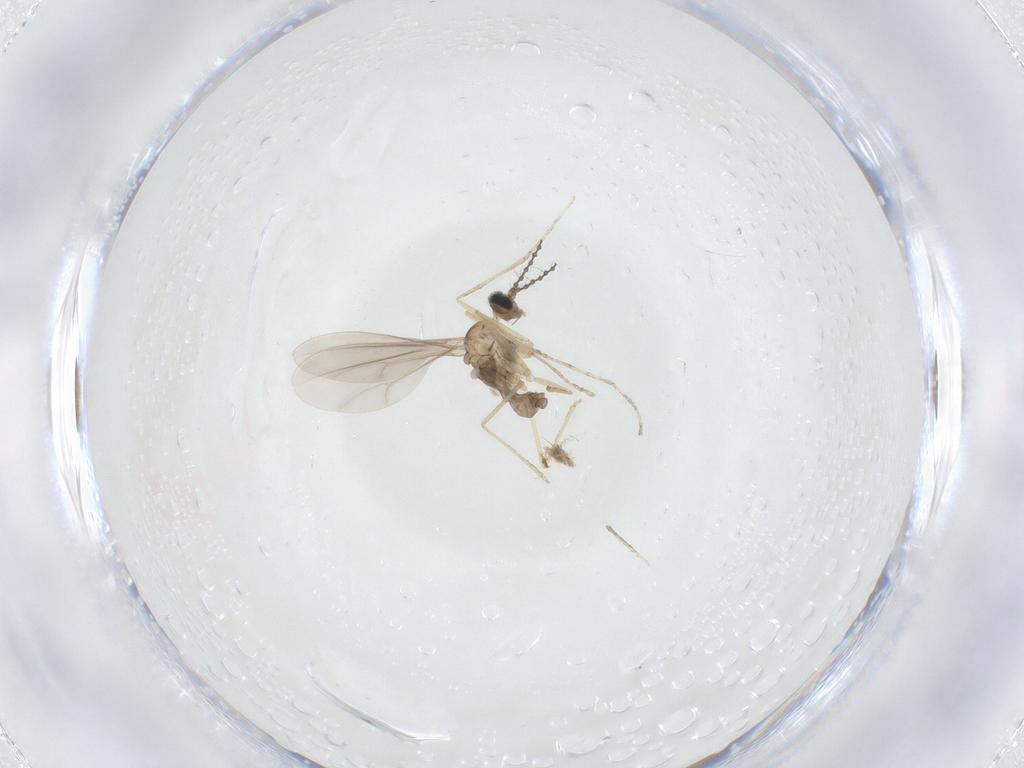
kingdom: Animalia
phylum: Arthropoda
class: Insecta
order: Diptera
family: Cecidomyiidae
